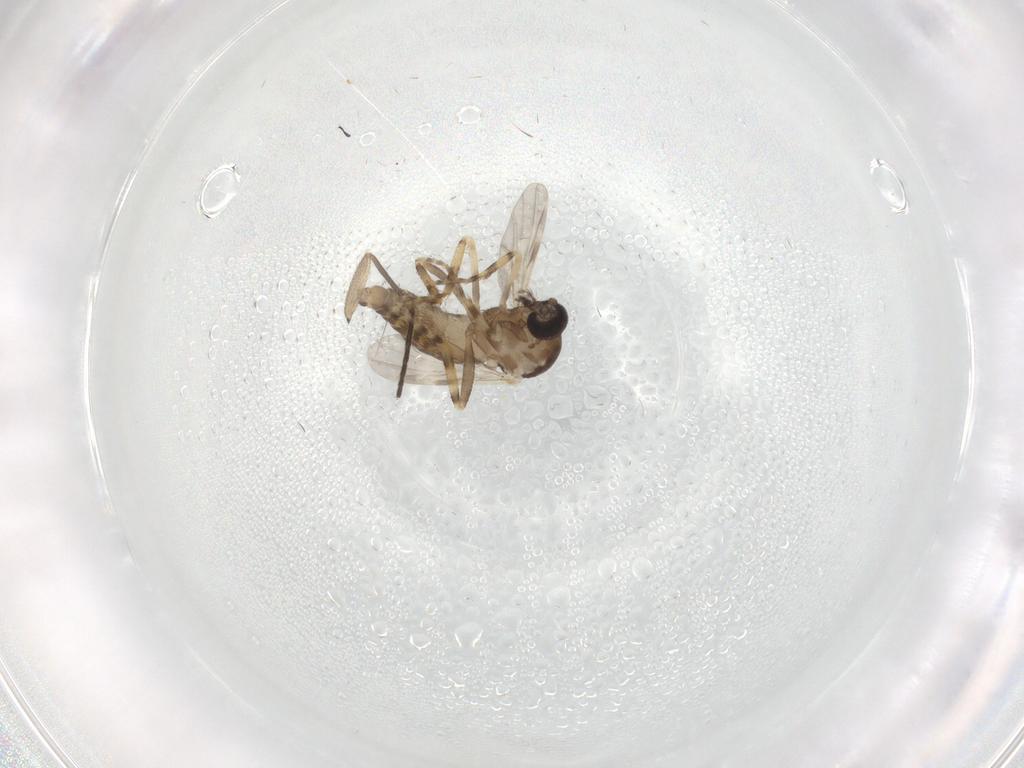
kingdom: Animalia
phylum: Arthropoda
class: Insecta
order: Diptera
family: Ceratopogonidae
